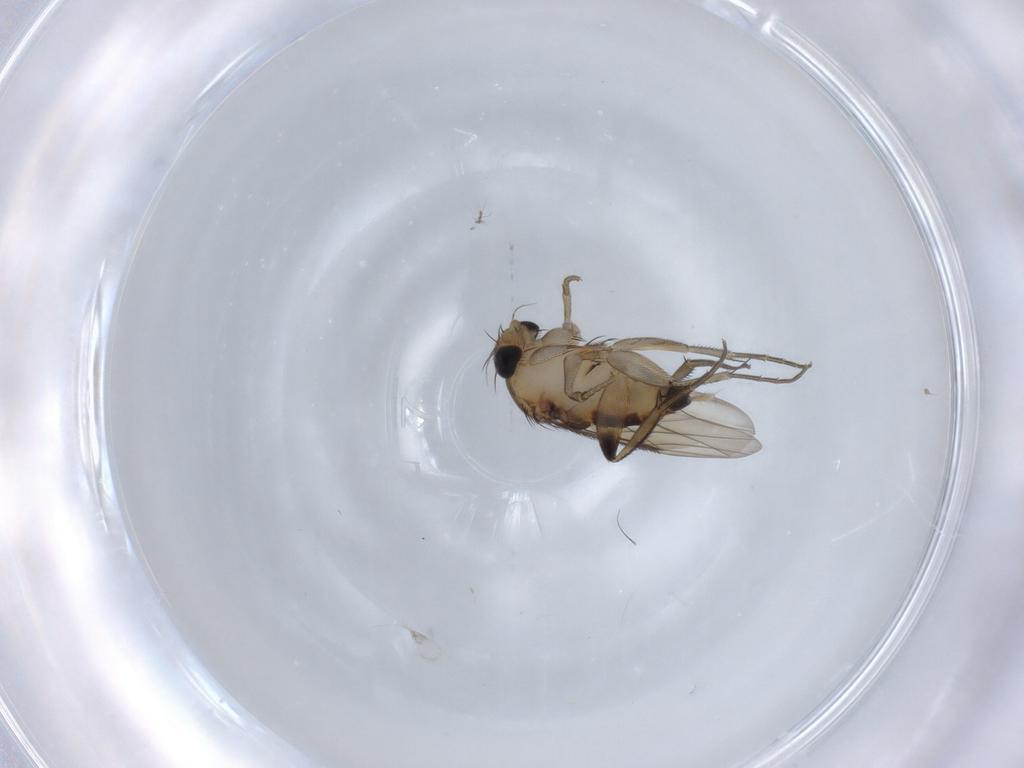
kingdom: Animalia
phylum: Arthropoda
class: Insecta
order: Diptera
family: Phoridae
